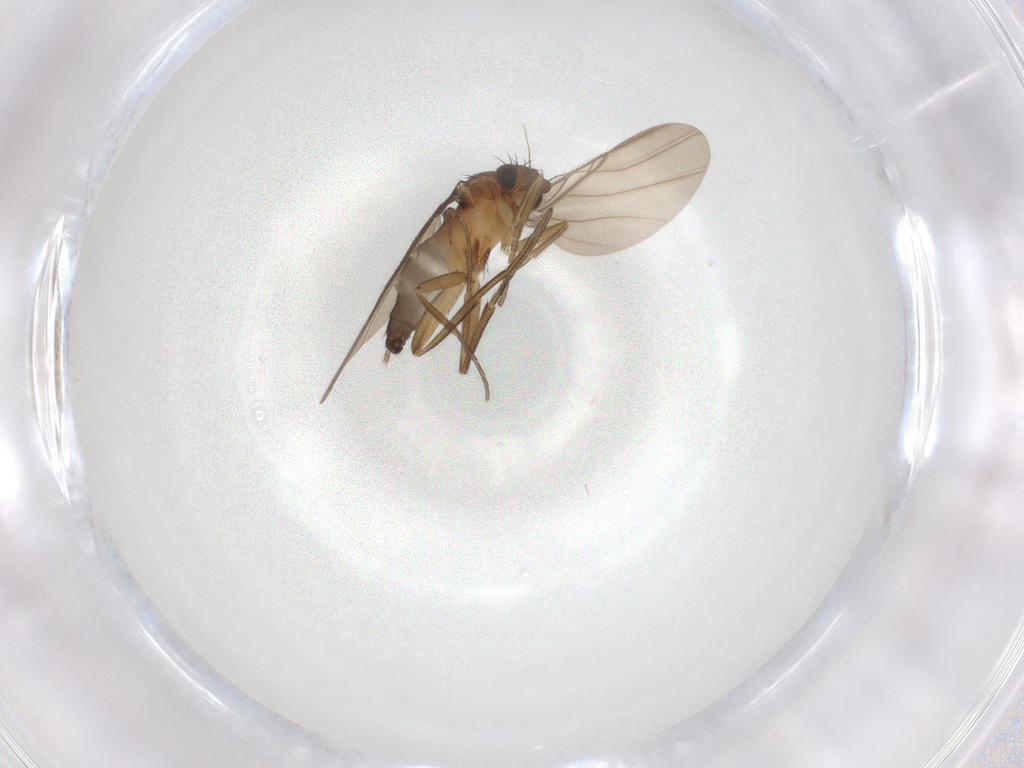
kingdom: Animalia
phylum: Arthropoda
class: Insecta
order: Diptera
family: Phoridae
